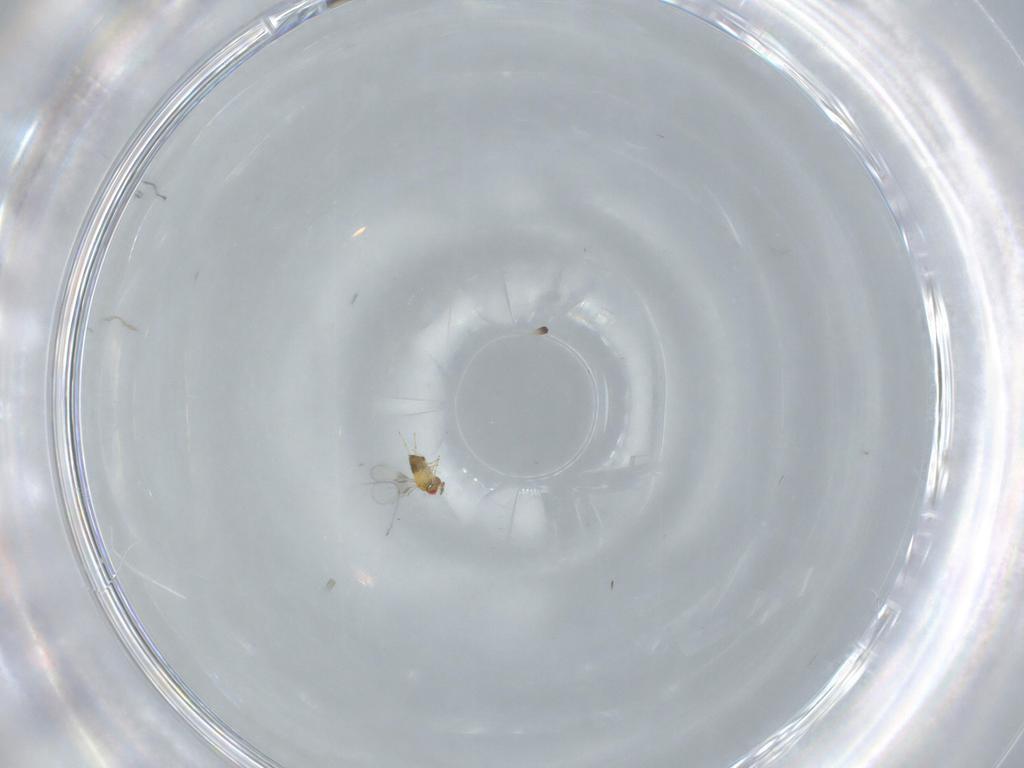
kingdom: Animalia
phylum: Arthropoda
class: Insecta
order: Hymenoptera
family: Trichogrammatidae
